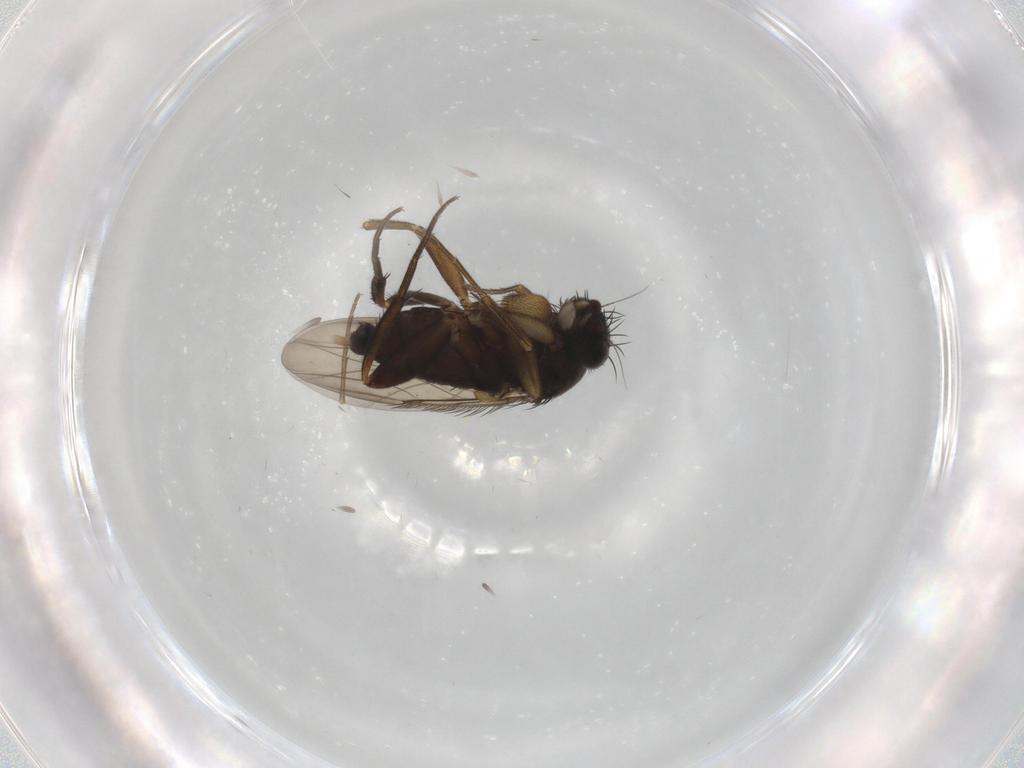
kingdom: Animalia
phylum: Arthropoda
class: Insecta
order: Diptera
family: Phoridae
